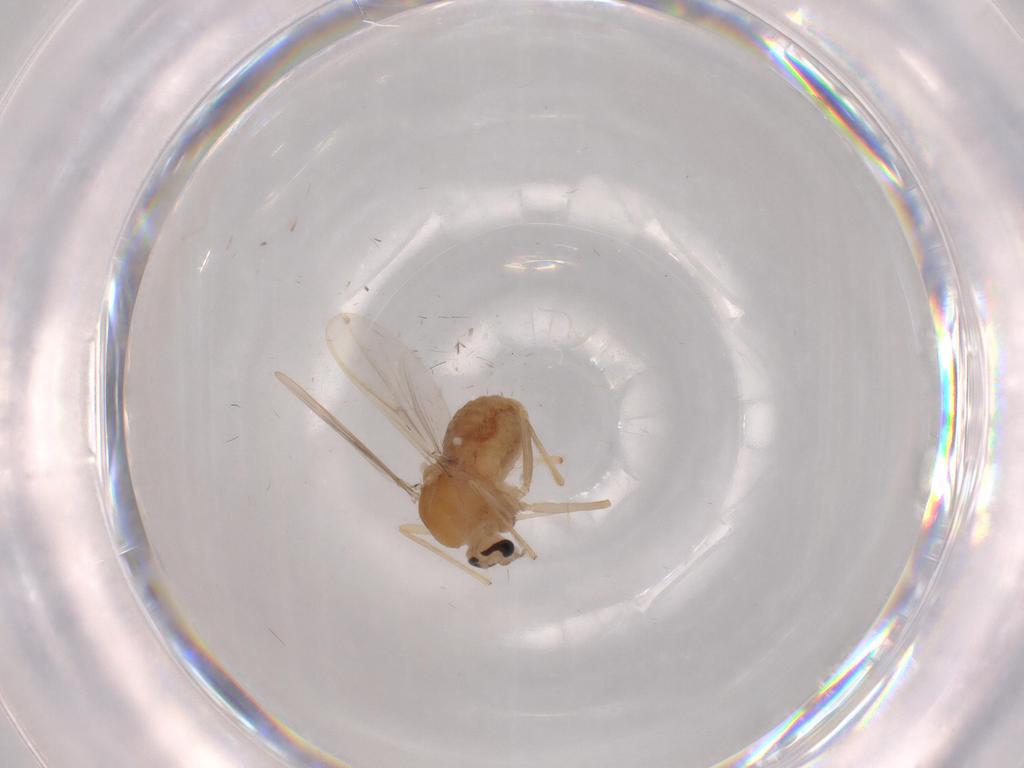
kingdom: Animalia
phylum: Arthropoda
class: Insecta
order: Diptera
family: Chironomidae
